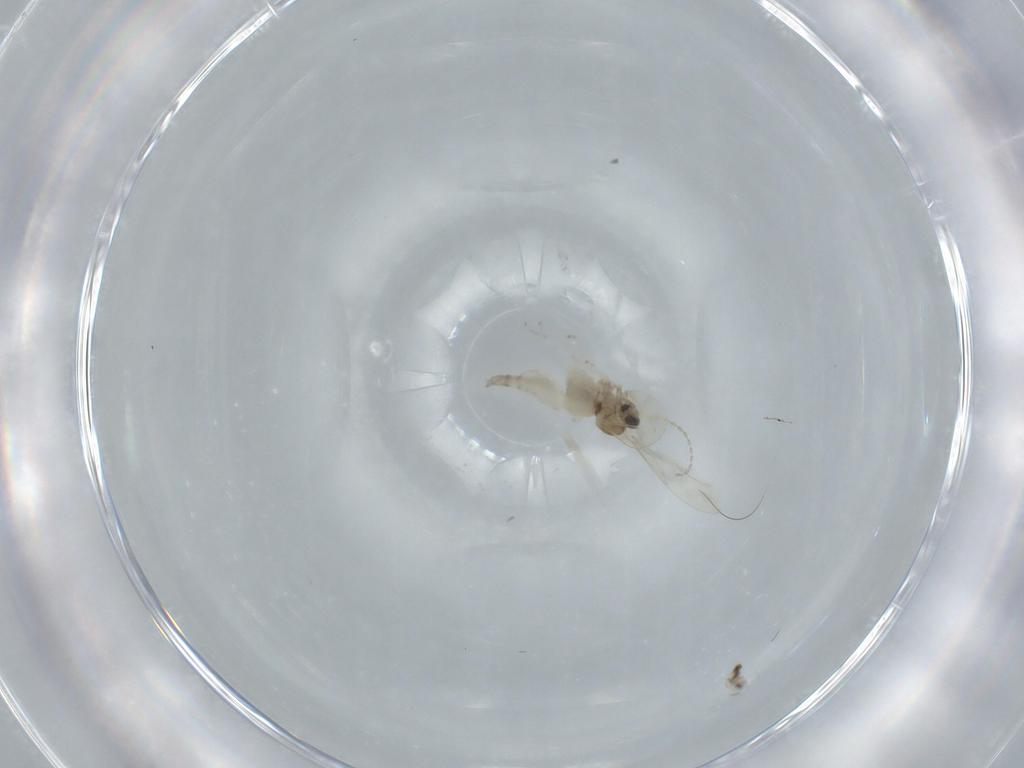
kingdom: Animalia
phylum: Arthropoda
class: Insecta
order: Diptera
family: Cecidomyiidae
